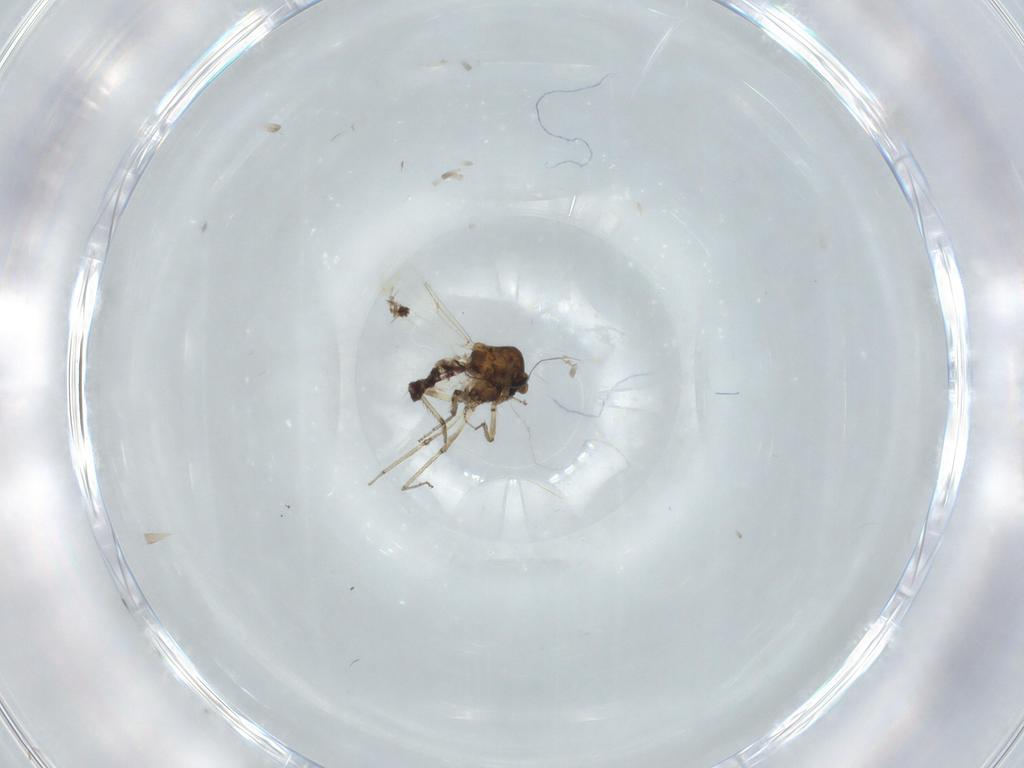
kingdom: Animalia
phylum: Arthropoda
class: Insecta
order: Diptera
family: Ceratopogonidae
